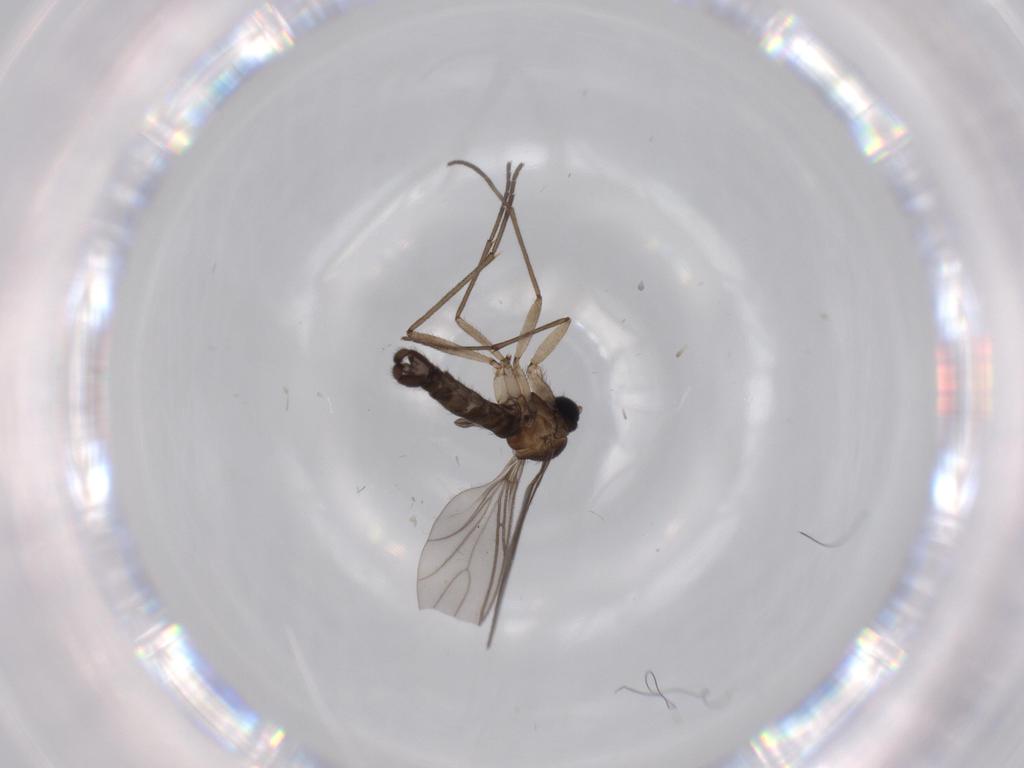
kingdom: Animalia
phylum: Arthropoda
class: Insecta
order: Diptera
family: Sciaridae
